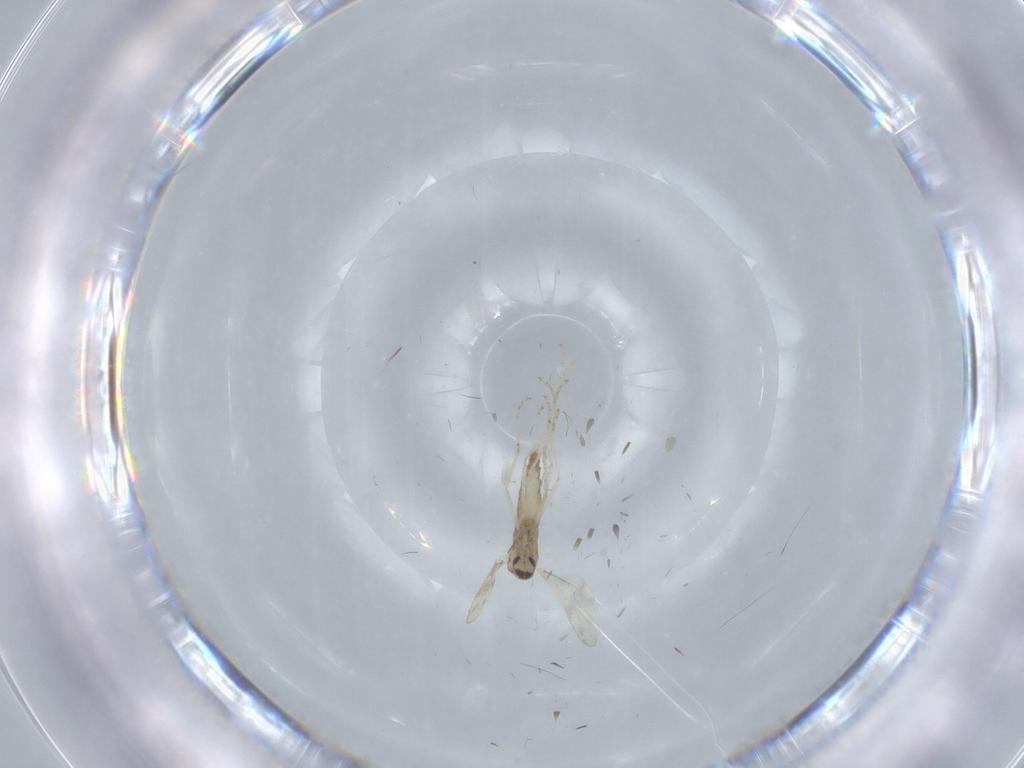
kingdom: Animalia
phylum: Arthropoda
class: Insecta
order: Diptera
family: Cecidomyiidae
